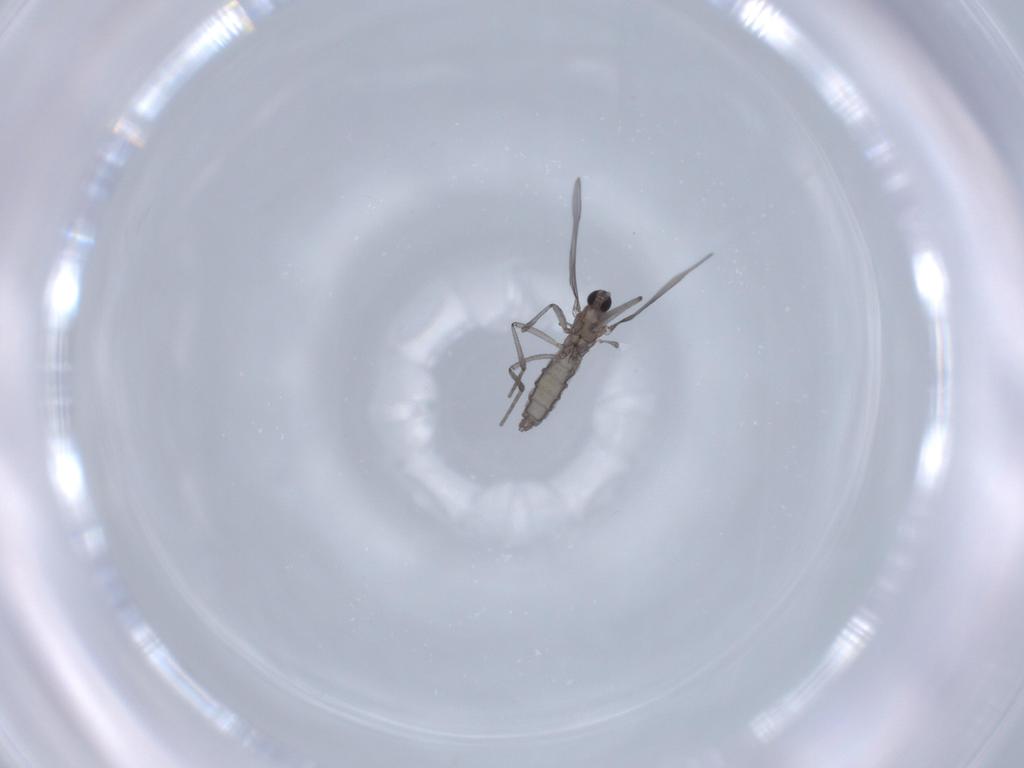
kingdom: Animalia
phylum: Arthropoda
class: Insecta
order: Diptera
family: Cecidomyiidae
